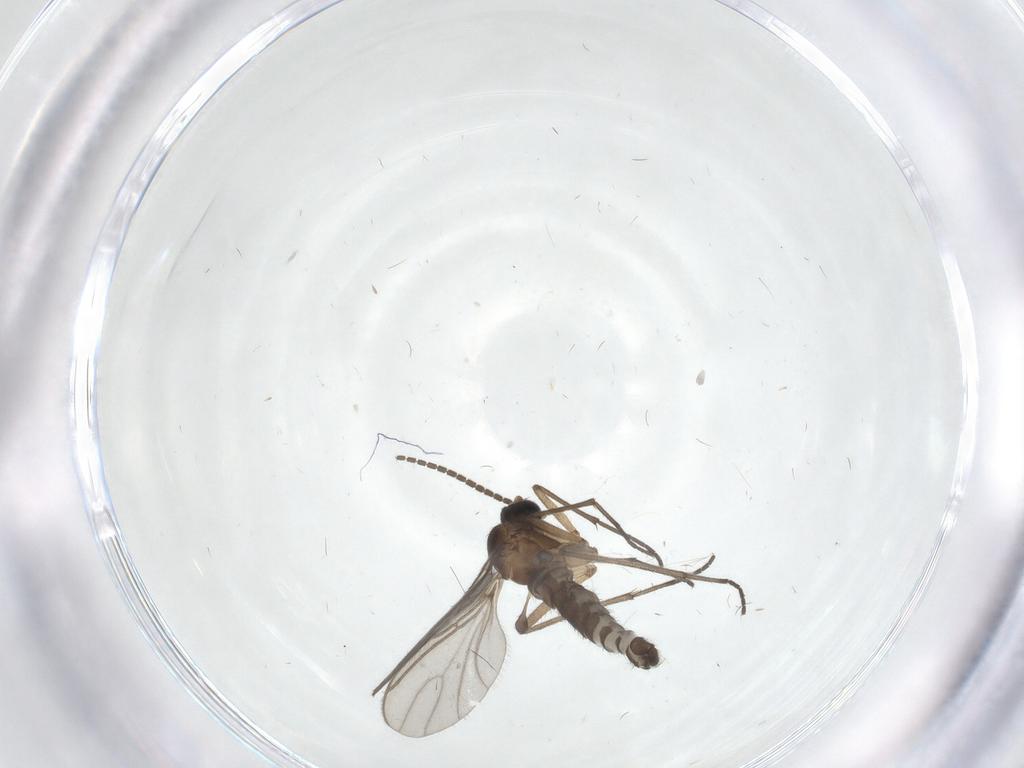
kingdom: Animalia
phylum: Arthropoda
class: Insecta
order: Diptera
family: Sciaridae
